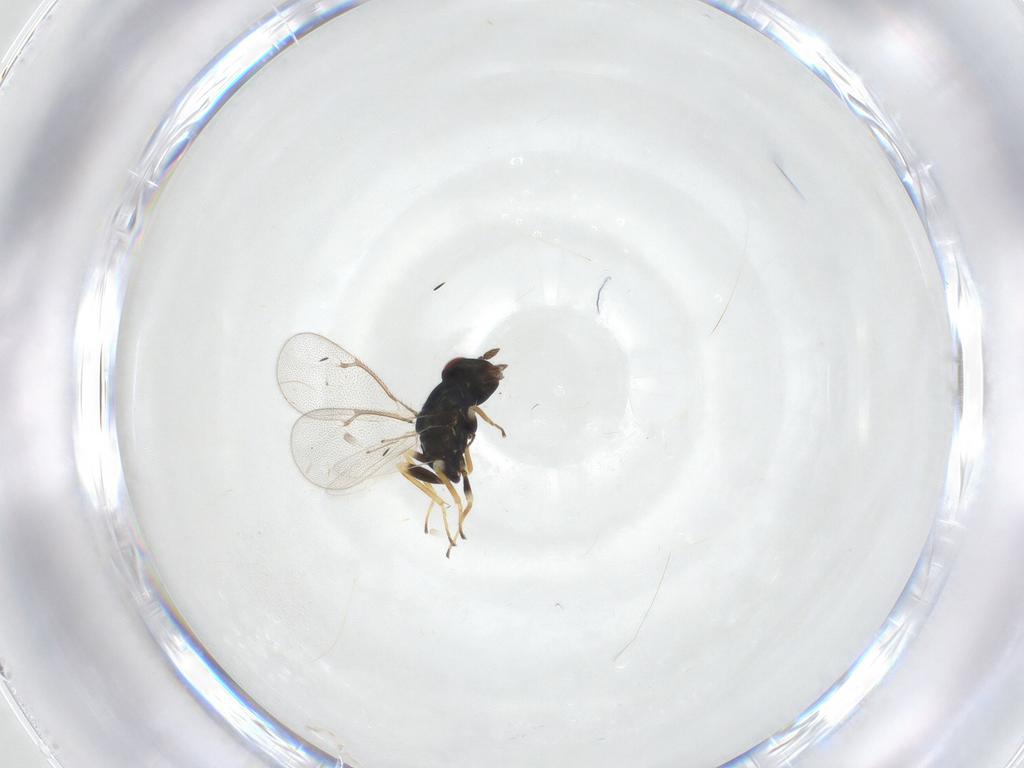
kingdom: Animalia
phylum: Arthropoda
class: Insecta
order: Hymenoptera
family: Eulophidae
